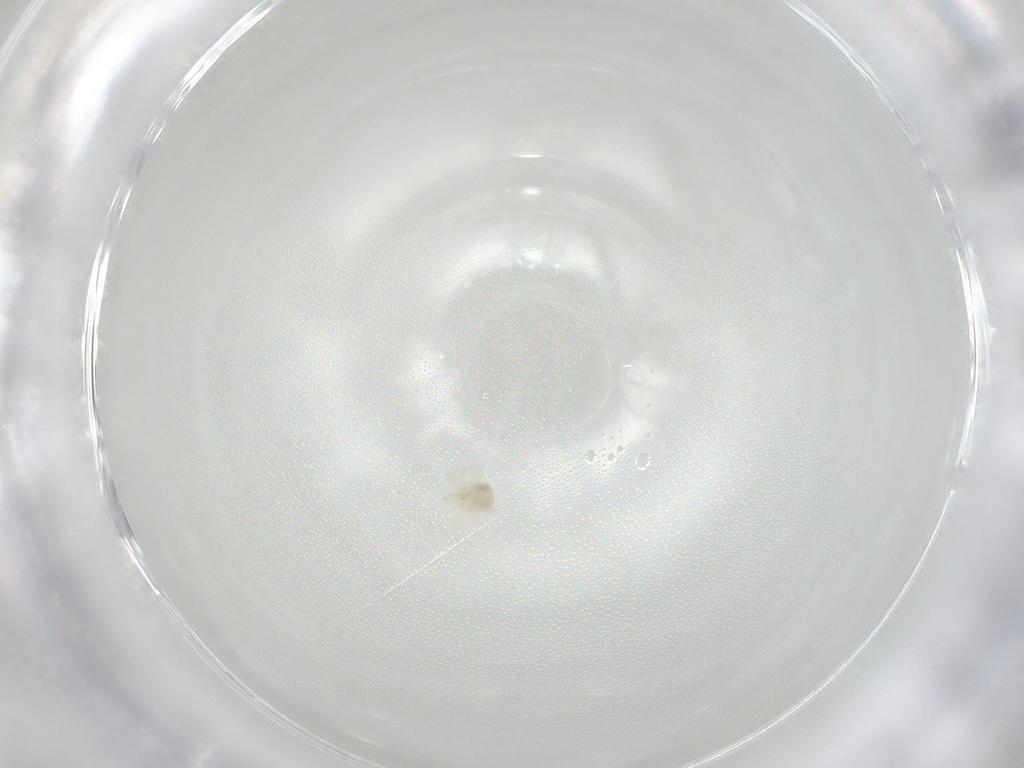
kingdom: Animalia
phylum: Arthropoda
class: Arachnida
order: Trombidiformes
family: Anystidae
